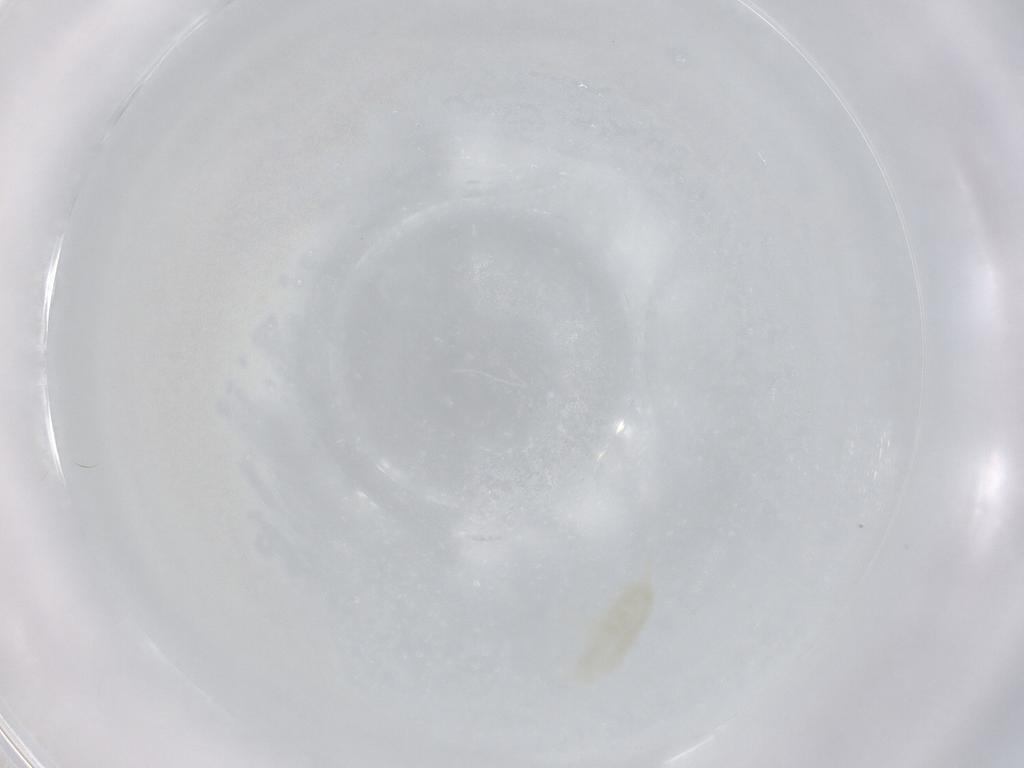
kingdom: Animalia
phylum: Arthropoda
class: Copepoda
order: Calanoida
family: Diaptomidae
